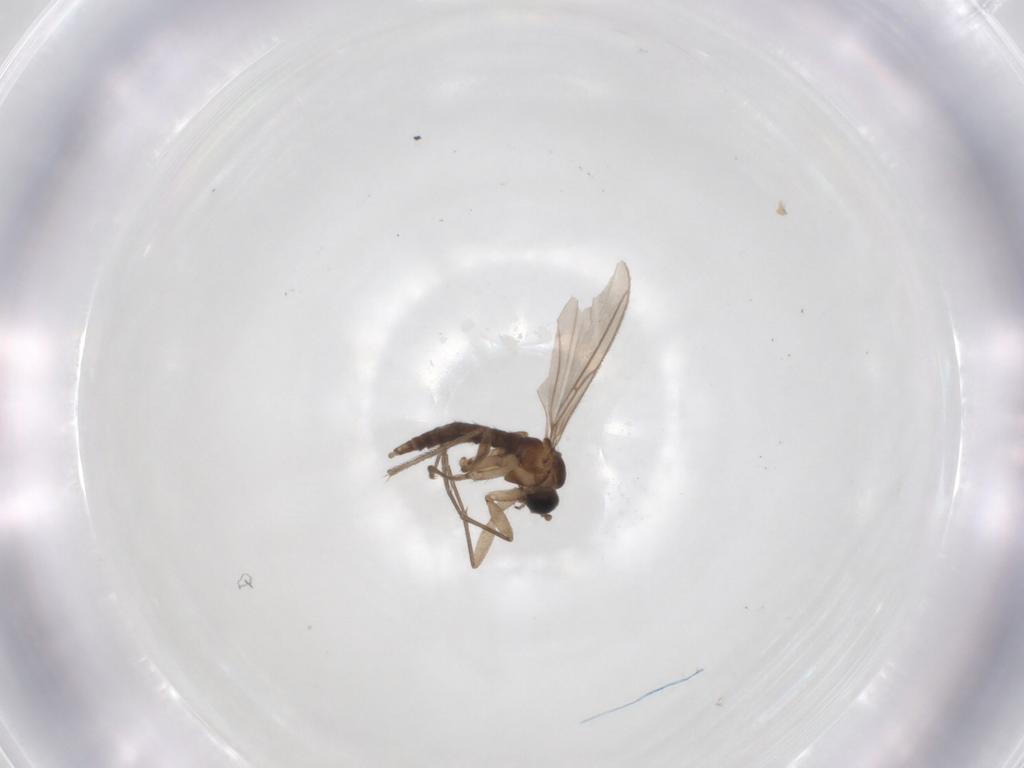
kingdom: Animalia
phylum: Arthropoda
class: Insecta
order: Diptera
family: Sciaridae
